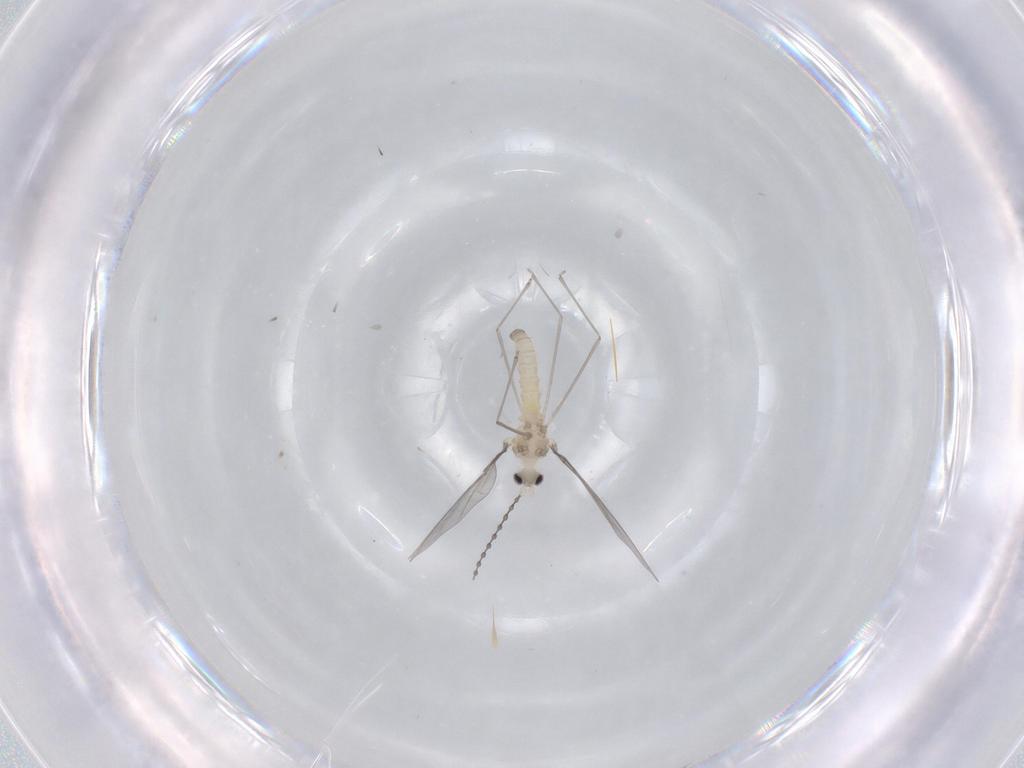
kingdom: Animalia
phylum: Arthropoda
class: Insecta
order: Diptera
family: Cecidomyiidae
